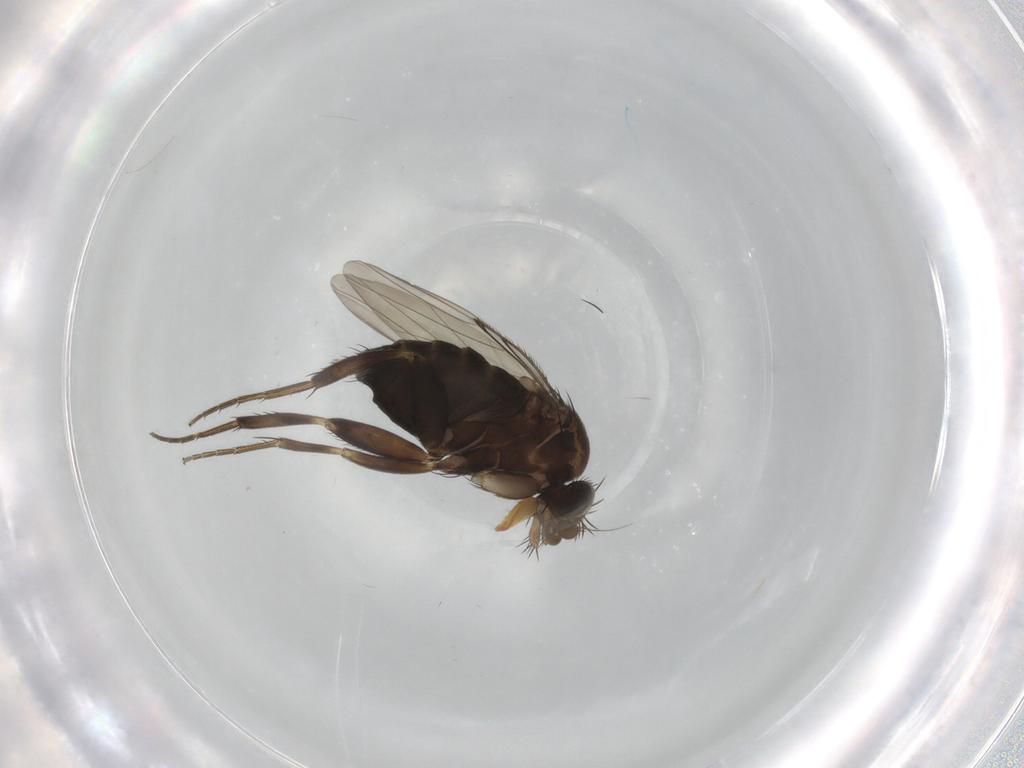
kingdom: Animalia
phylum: Arthropoda
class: Insecta
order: Diptera
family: Phoridae
